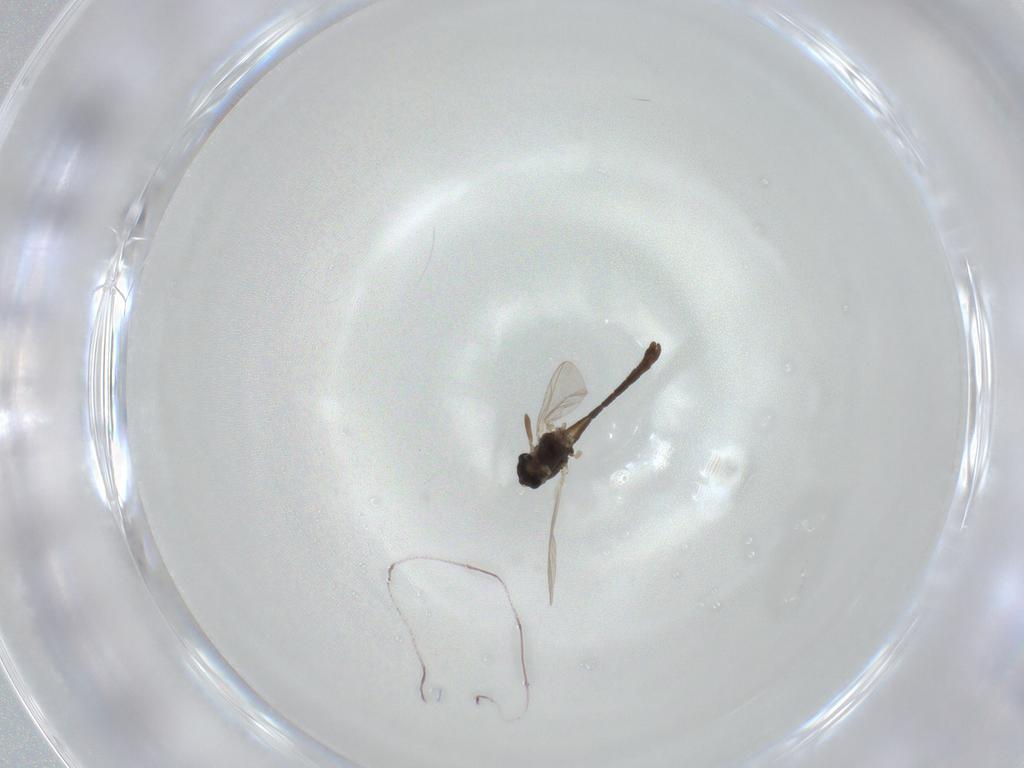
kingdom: Animalia
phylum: Arthropoda
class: Insecta
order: Diptera
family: Chironomidae
